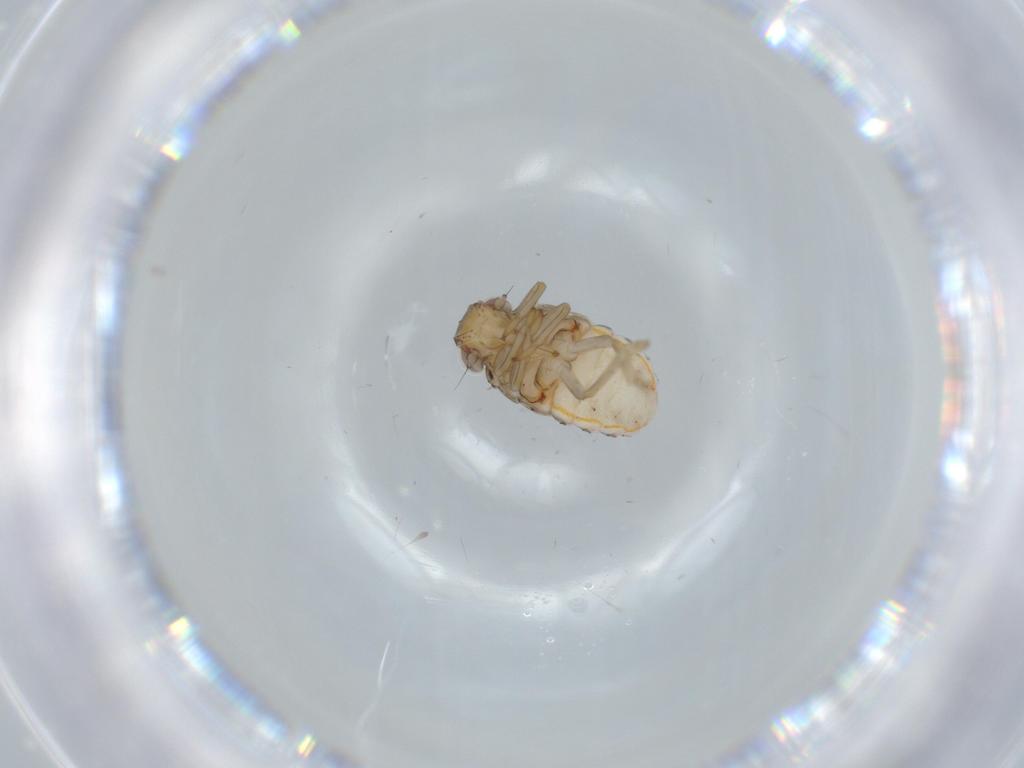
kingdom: Animalia
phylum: Arthropoda
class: Insecta
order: Hemiptera
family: Issidae
